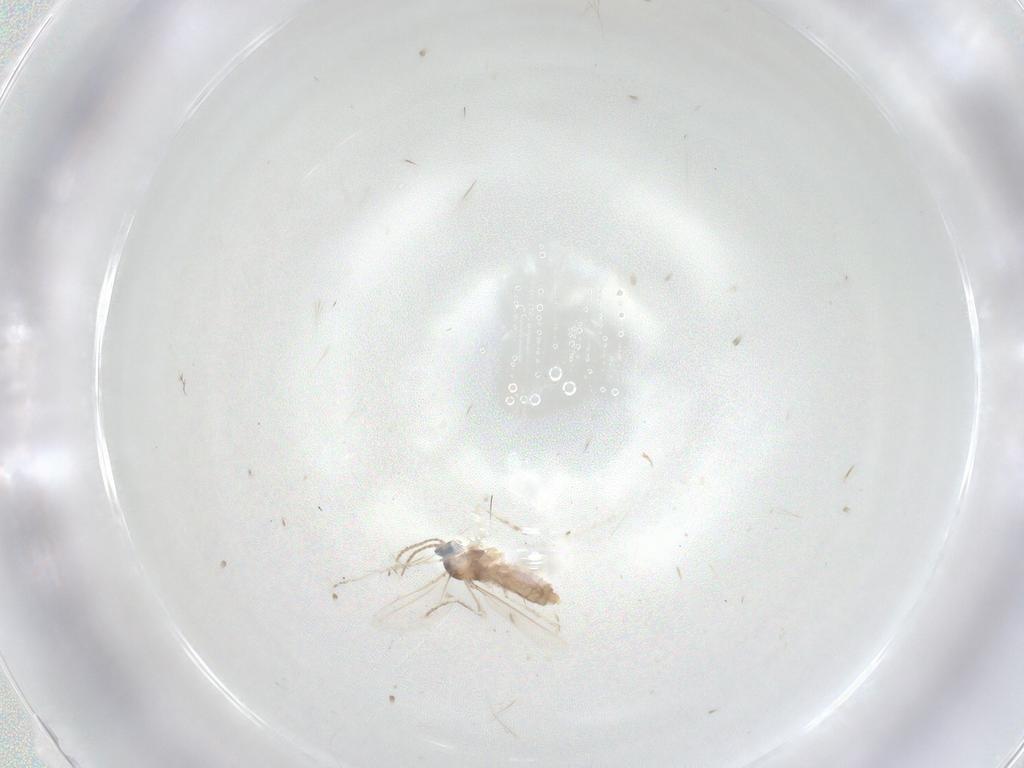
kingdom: Animalia
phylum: Arthropoda
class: Insecta
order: Diptera
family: Cecidomyiidae
